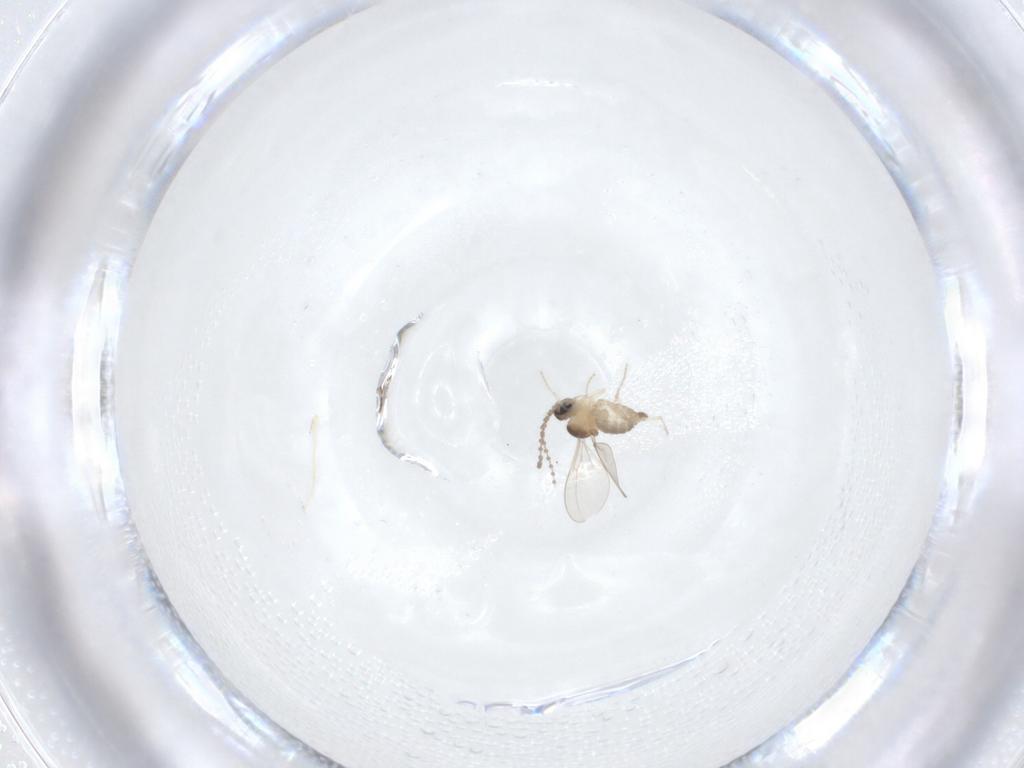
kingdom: Animalia
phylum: Arthropoda
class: Insecta
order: Diptera
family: Cecidomyiidae
